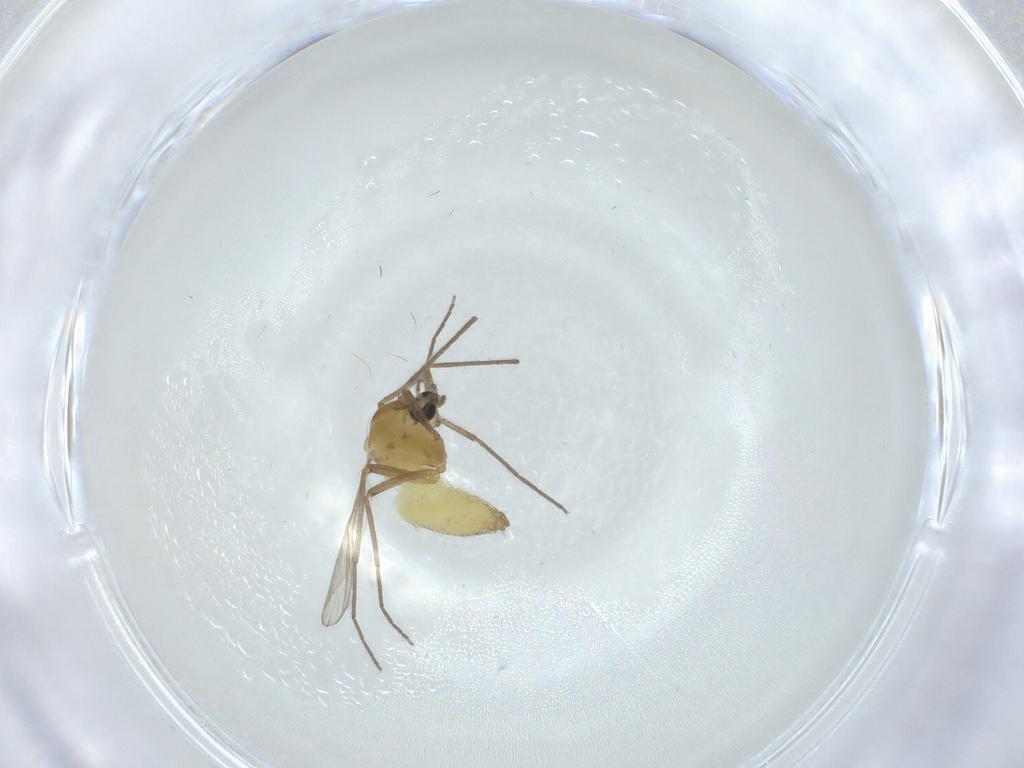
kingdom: Animalia
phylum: Arthropoda
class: Insecta
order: Diptera
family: Chironomidae
